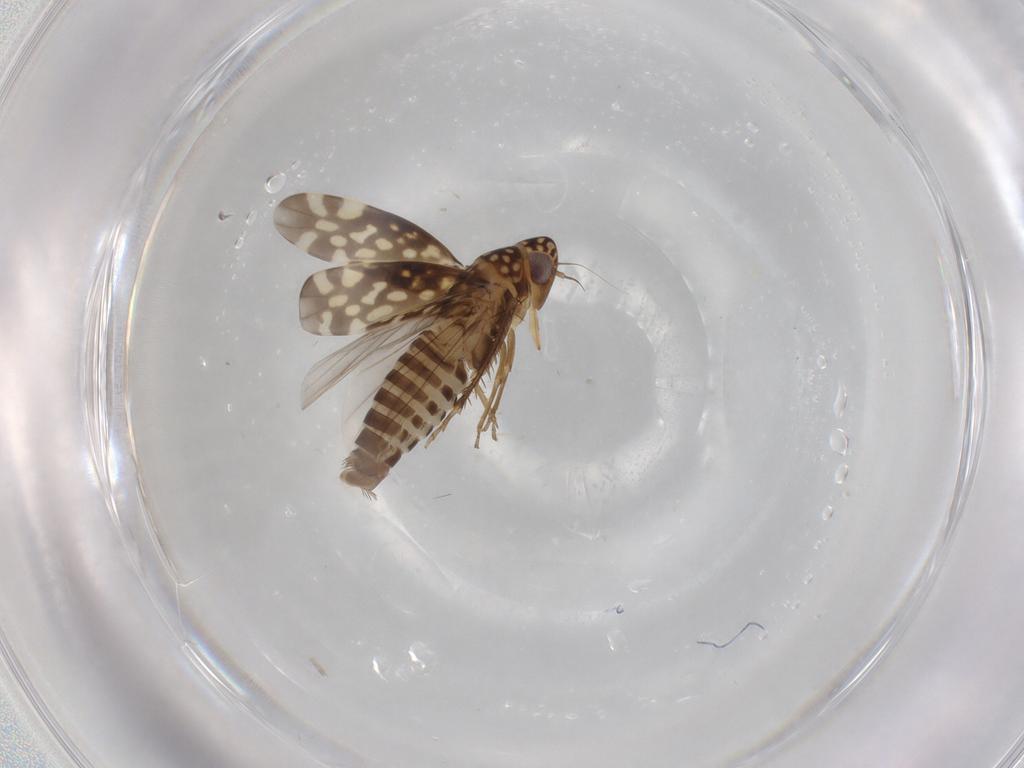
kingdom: Animalia
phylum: Arthropoda
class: Insecta
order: Hemiptera
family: Cicadellidae
